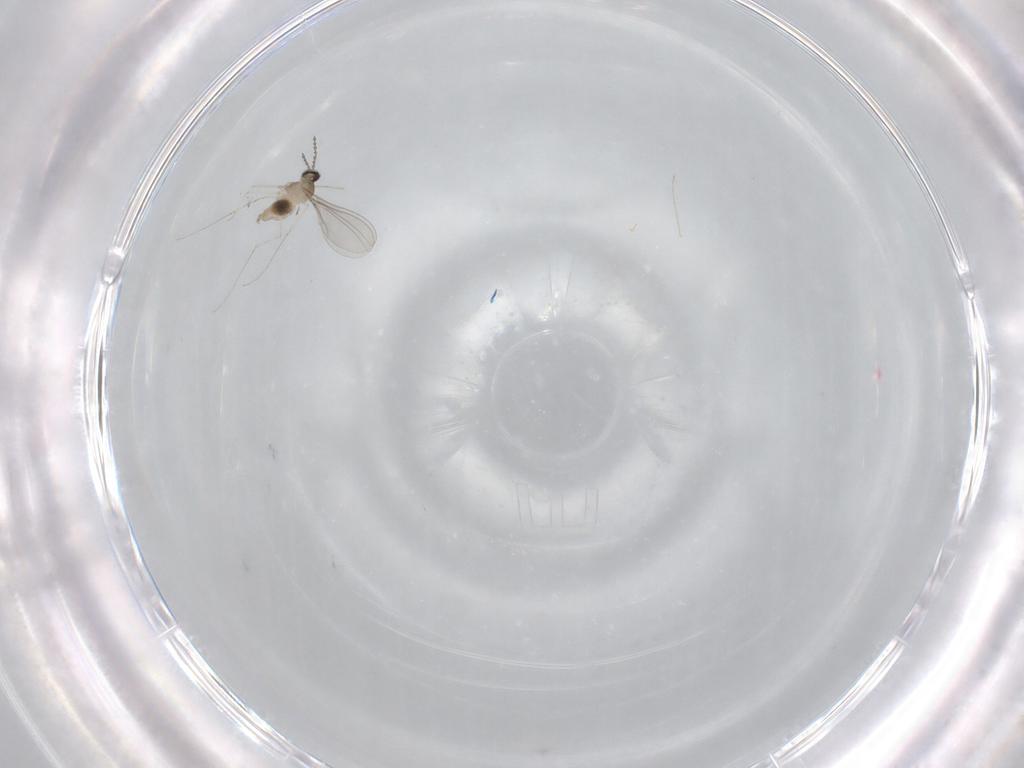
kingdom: Animalia
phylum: Arthropoda
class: Insecta
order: Diptera
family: Cecidomyiidae
